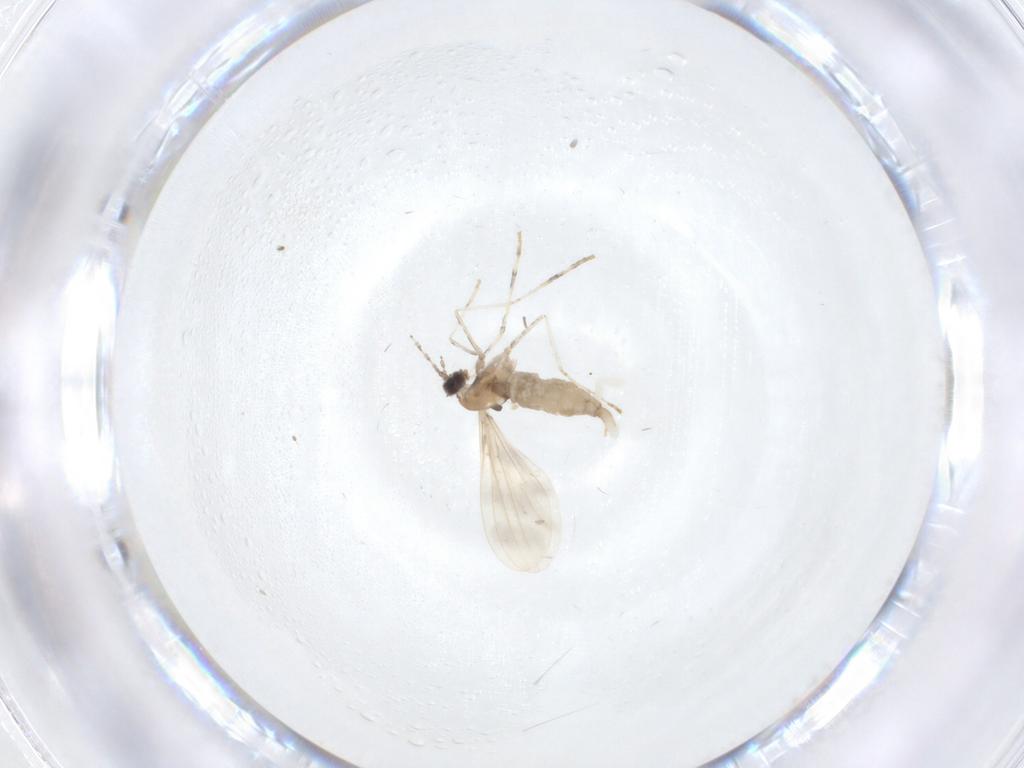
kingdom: Animalia
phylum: Arthropoda
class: Insecta
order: Diptera
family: Cecidomyiidae
